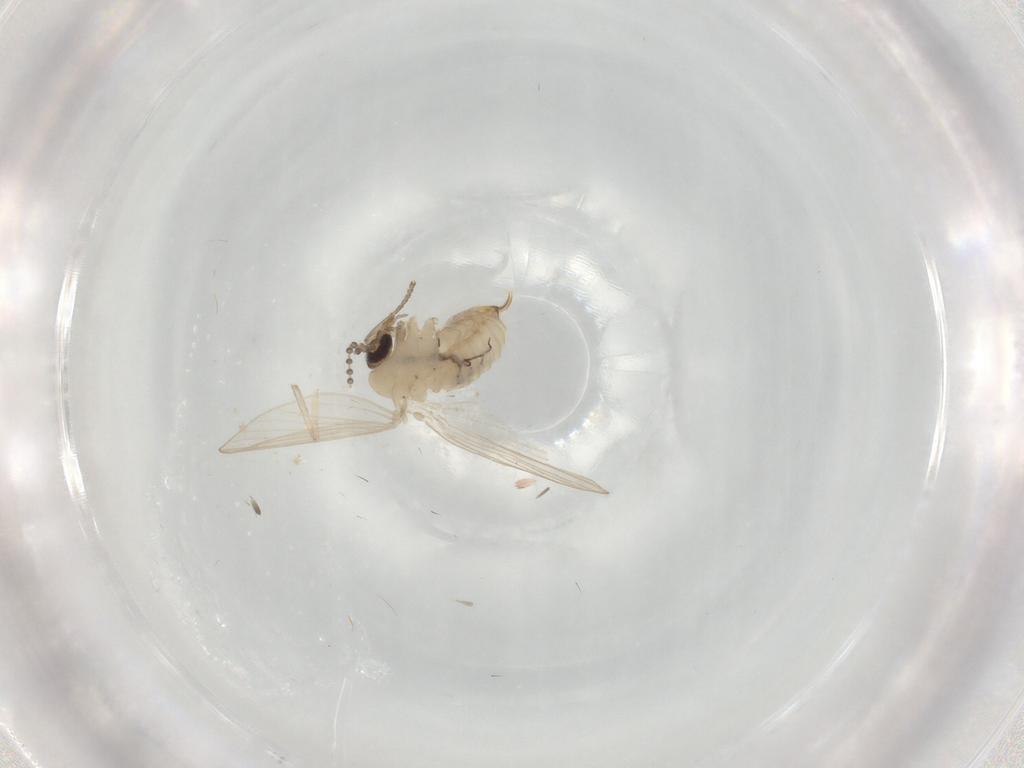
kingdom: Animalia
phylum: Arthropoda
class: Insecta
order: Diptera
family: Psychodidae
